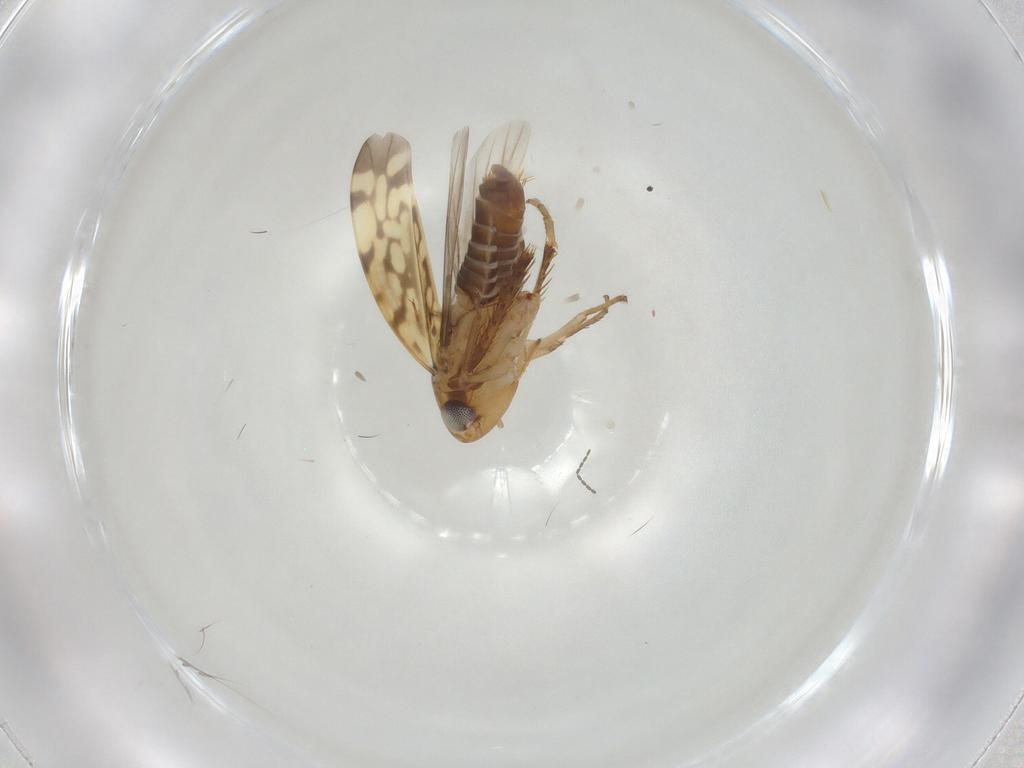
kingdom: Animalia
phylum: Arthropoda
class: Insecta
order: Hemiptera
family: Cicadellidae
